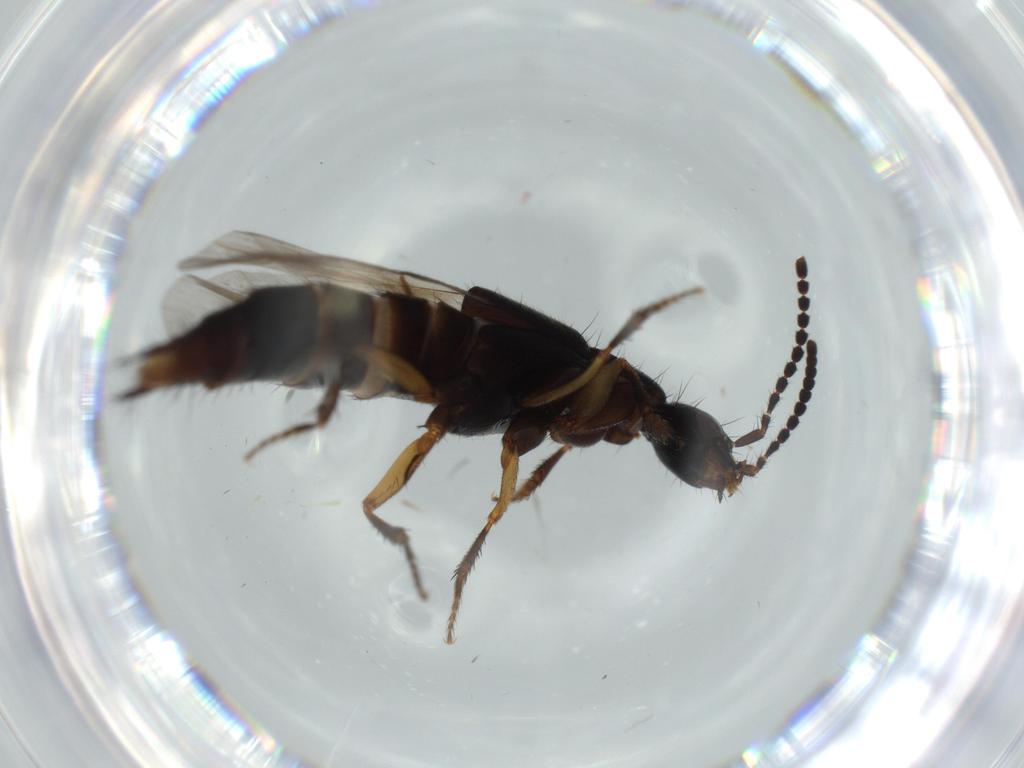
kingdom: Animalia
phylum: Arthropoda
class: Insecta
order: Coleoptera
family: Staphylinidae
